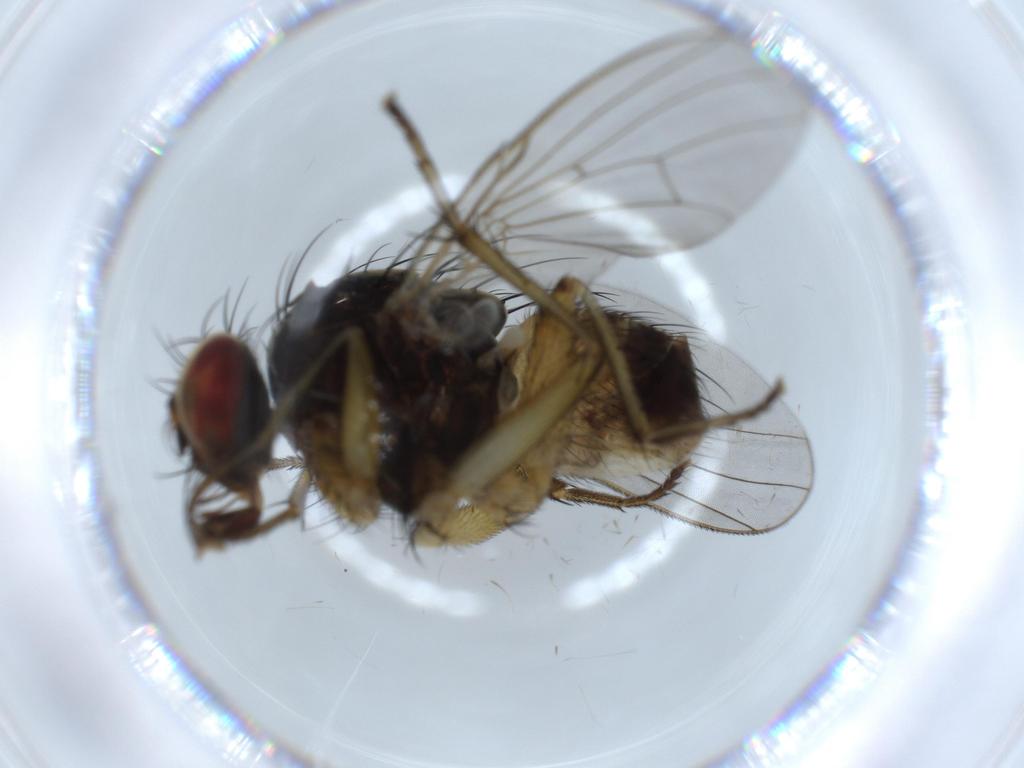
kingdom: Animalia
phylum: Arthropoda
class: Insecta
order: Diptera
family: Muscidae
